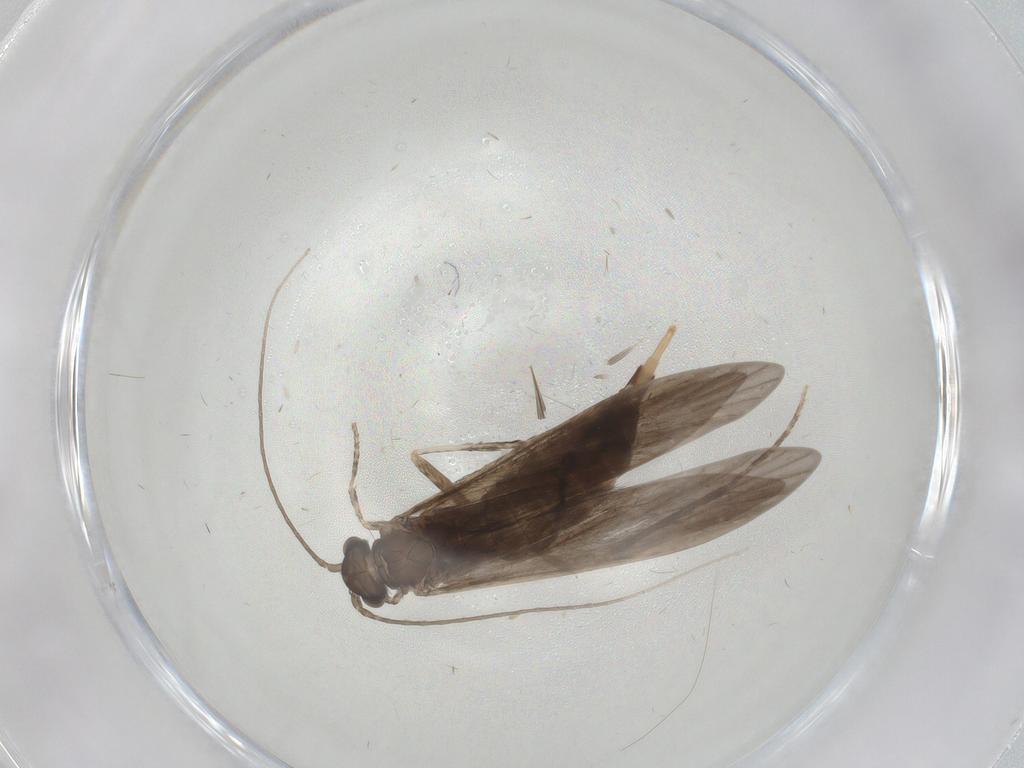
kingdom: Animalia
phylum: Arthropoda
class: Insecta
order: Trichoptera
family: Xiphocentronidae
